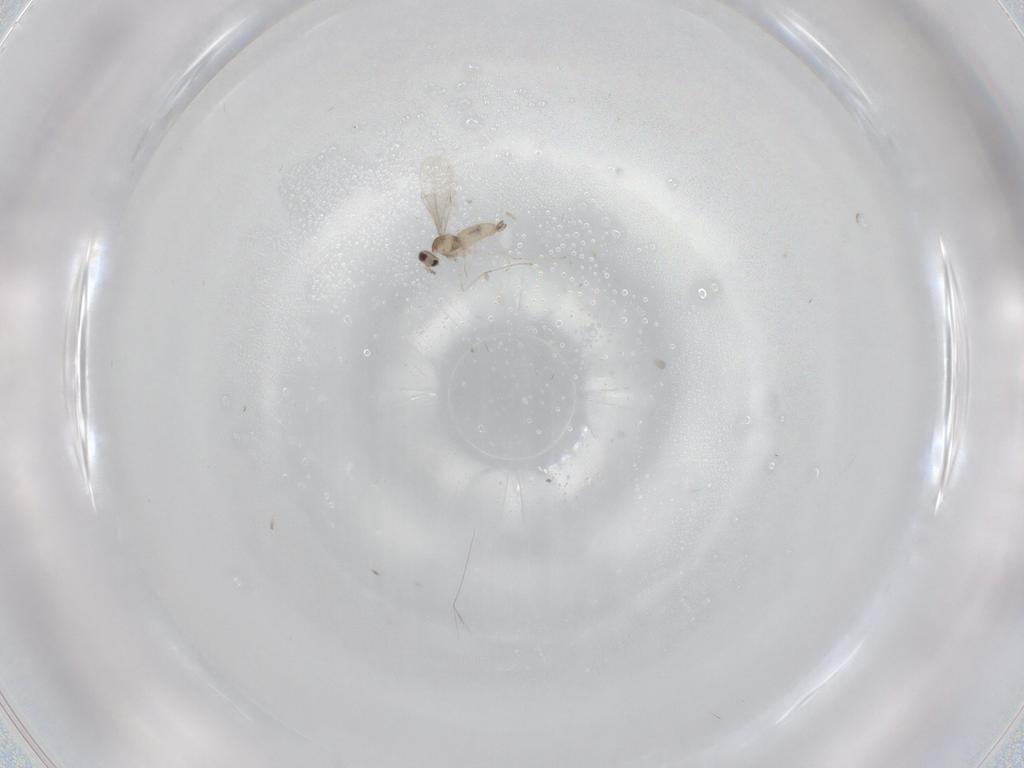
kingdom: Animalia
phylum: Arthropoda
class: Insecta
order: Diptera
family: Cecidomyiidae
